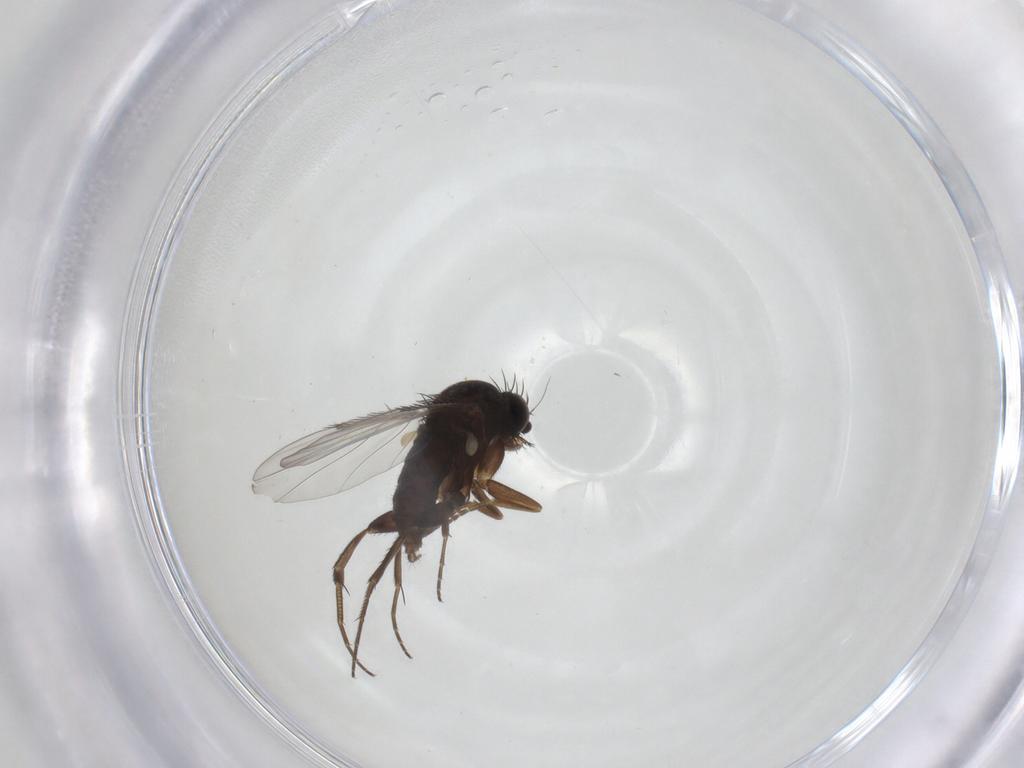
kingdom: Animalia
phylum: Arthropoda
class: Insecta
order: Diptera
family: Phoridae
